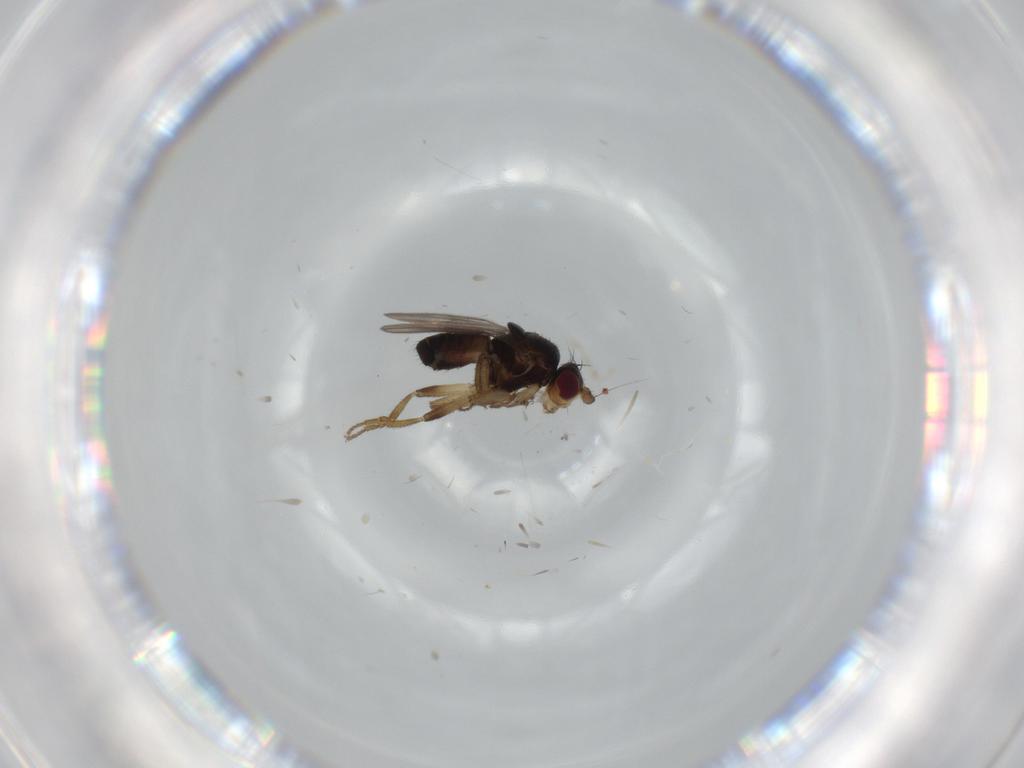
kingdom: Animalia
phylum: Arthropoda
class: Insecta
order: Diptera
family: Sphaeroceridae
